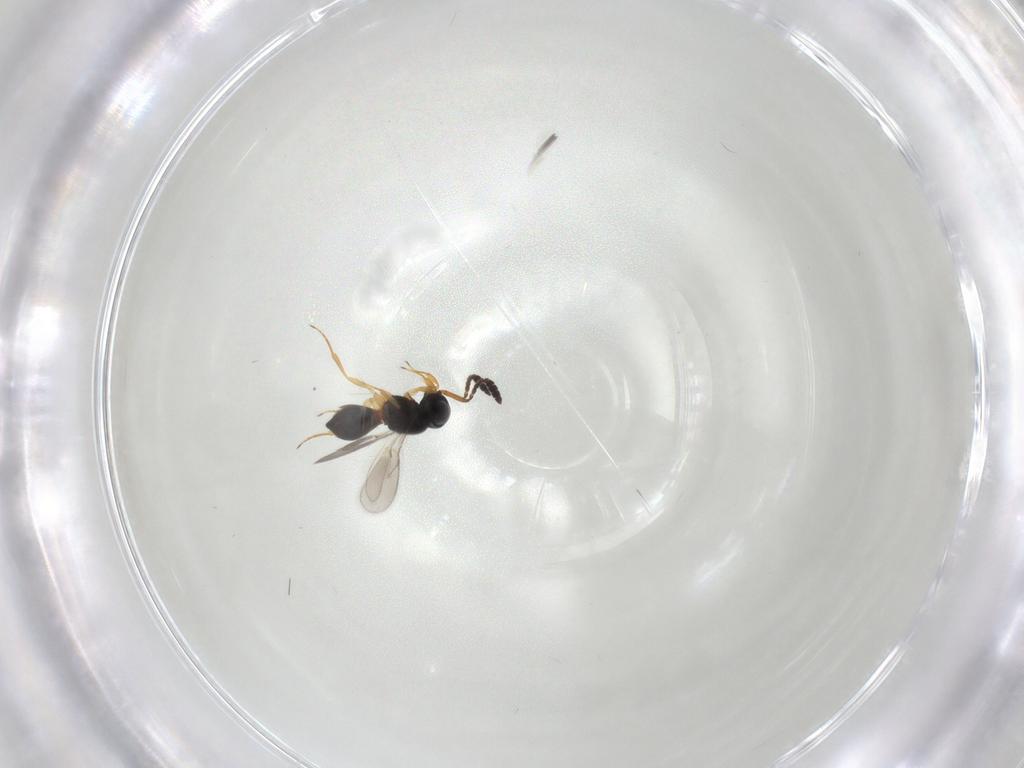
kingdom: Animalia
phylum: Arthropoda
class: Insecta
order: Hymenoptera
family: Scelionidae
